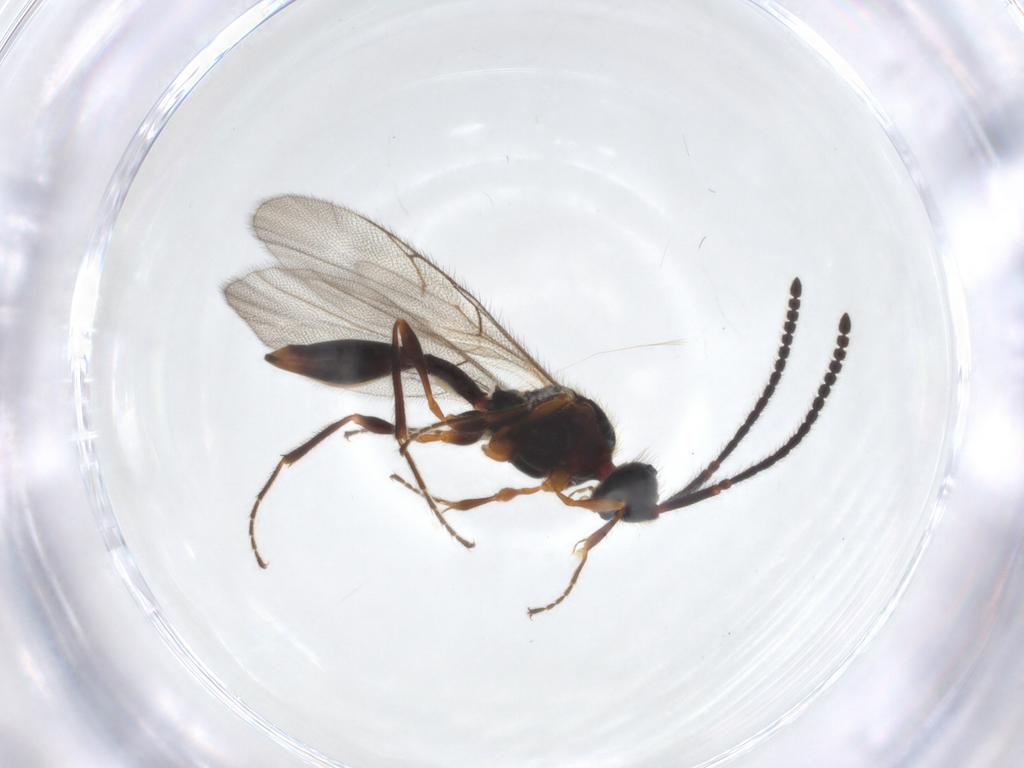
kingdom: Animalia
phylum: Arthropoda
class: Insecta
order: Hymenoptera
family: Diapriidae
